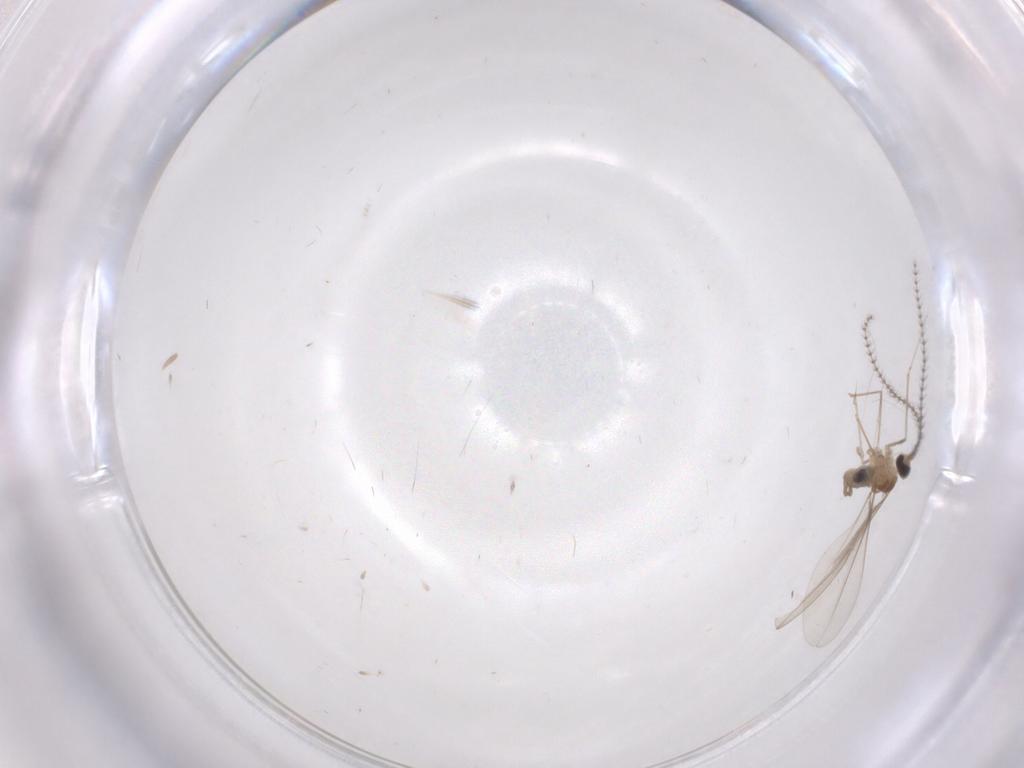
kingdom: Animalia
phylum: Arthropoda
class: Insecta
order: Diptera
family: Cecidomyiidae
